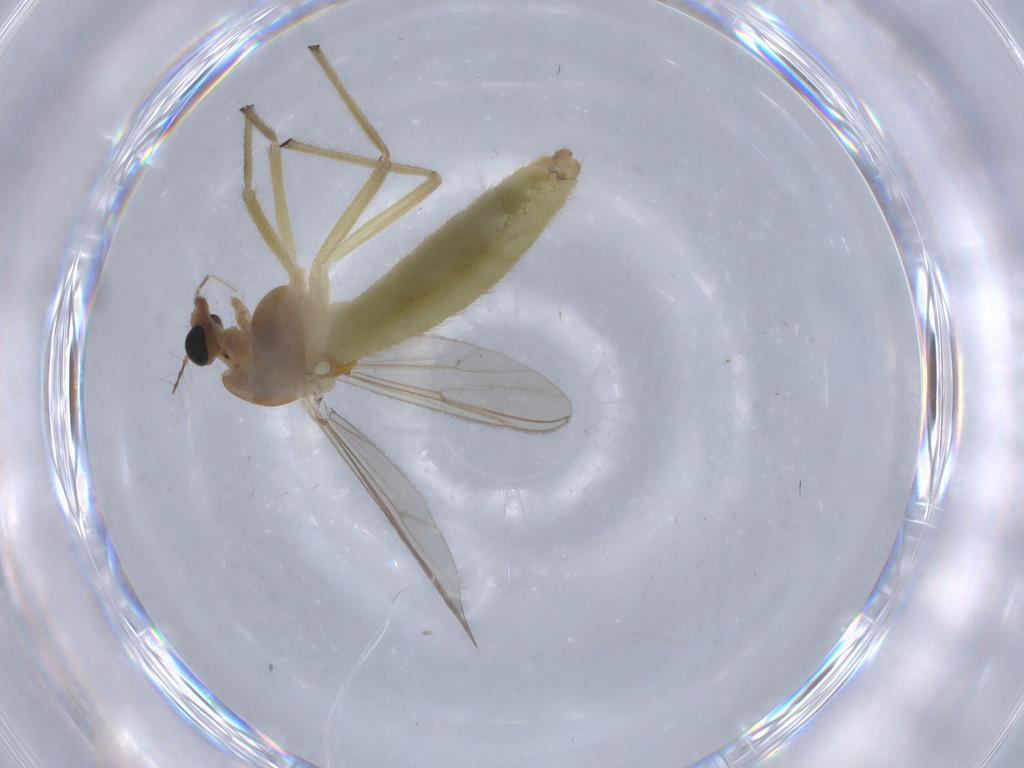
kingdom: Animalia
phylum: Arthropoda
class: Insecta
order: Diptera
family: Chironomidae
